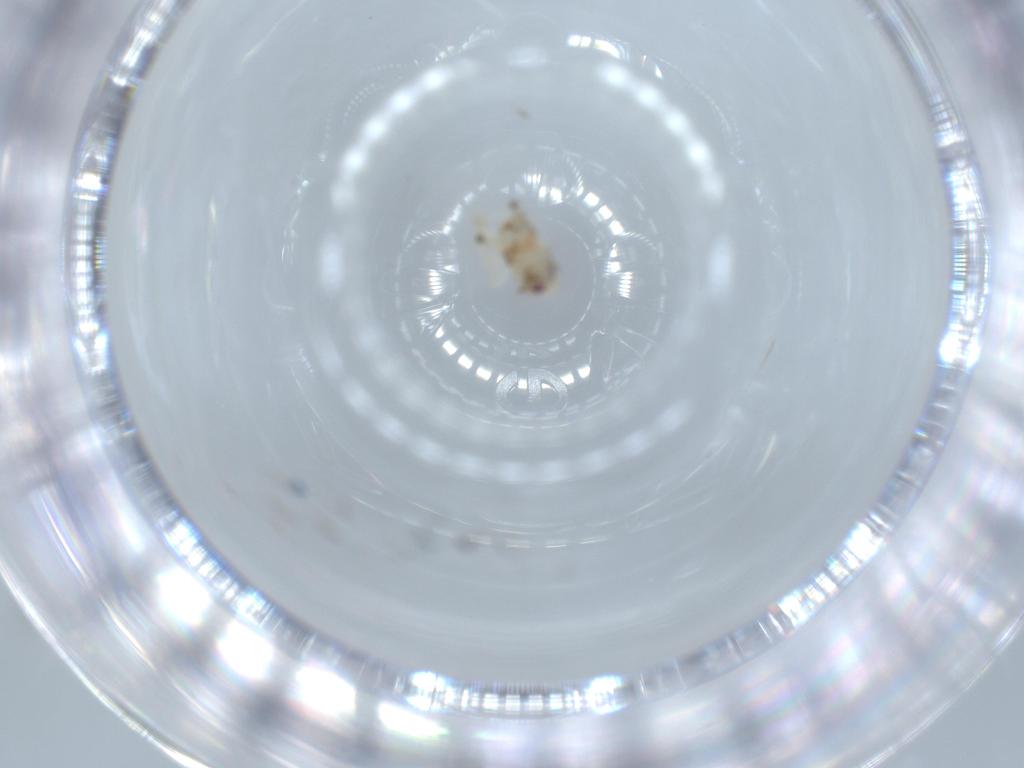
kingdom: Animalia
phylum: Arthropoda
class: Insecta
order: Hemiptera
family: Nogodinidae
